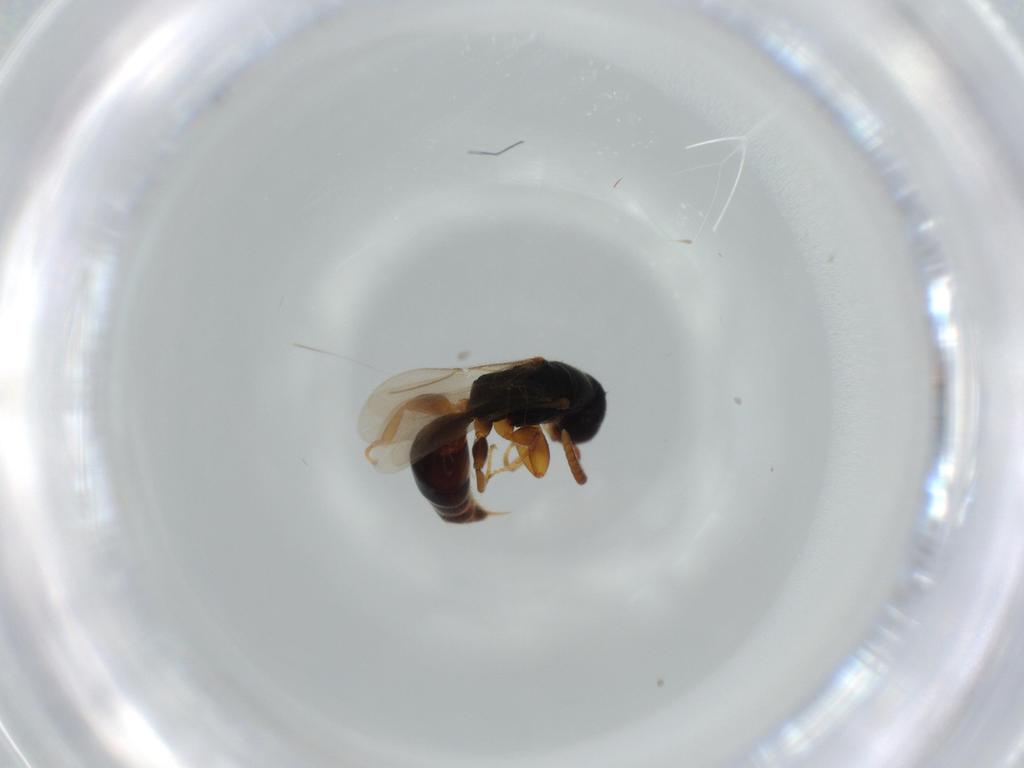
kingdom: Animalia
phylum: Arthropoda
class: Insecta
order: Hymenoptera
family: Bethylidae
